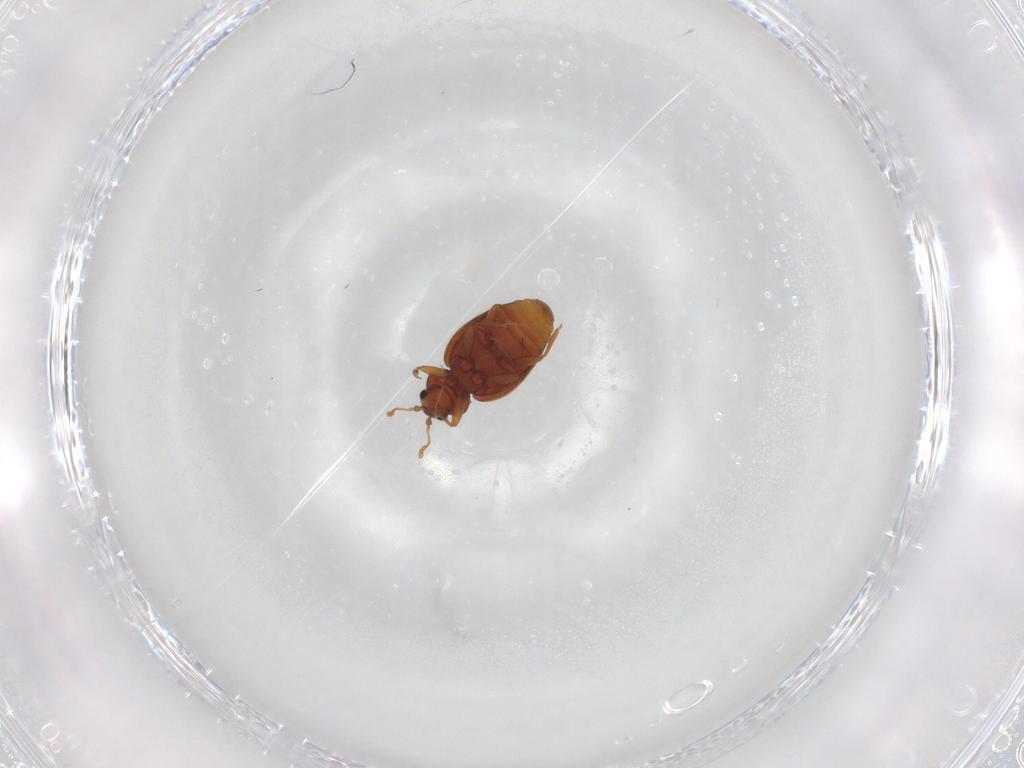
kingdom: Animalia
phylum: Arthropoda
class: Insecta
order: Coleoptera
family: Latridiidae
